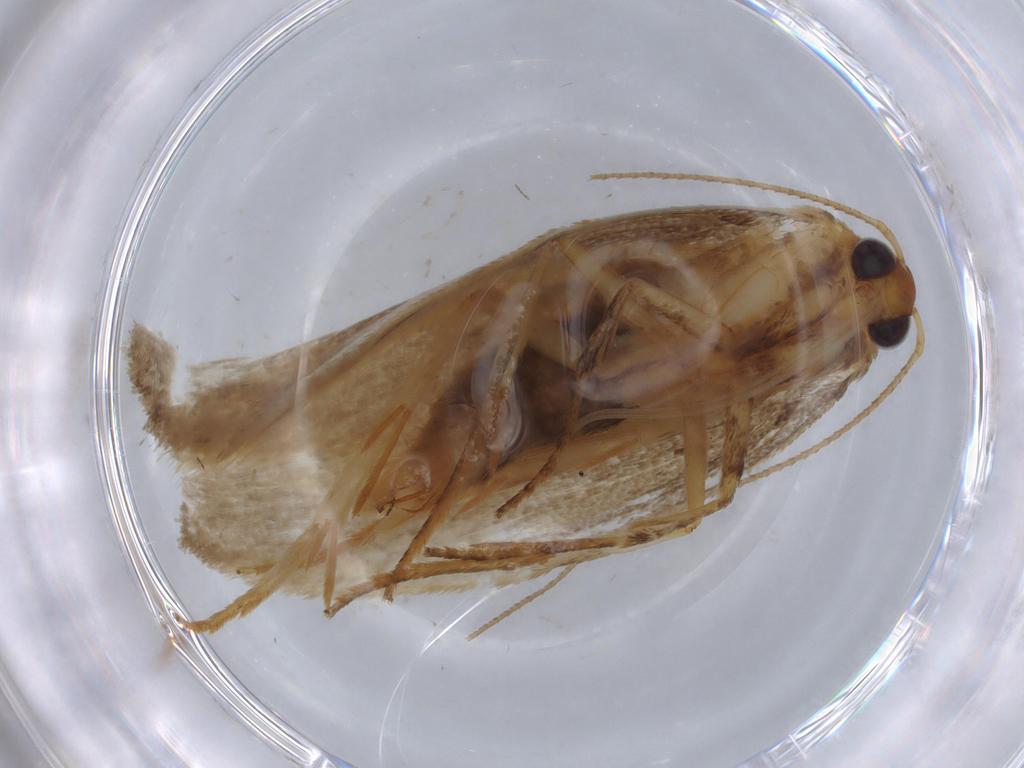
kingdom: Animalia
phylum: Arthropoda
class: Insecta
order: Lepidoptera
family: Oecophoridae
